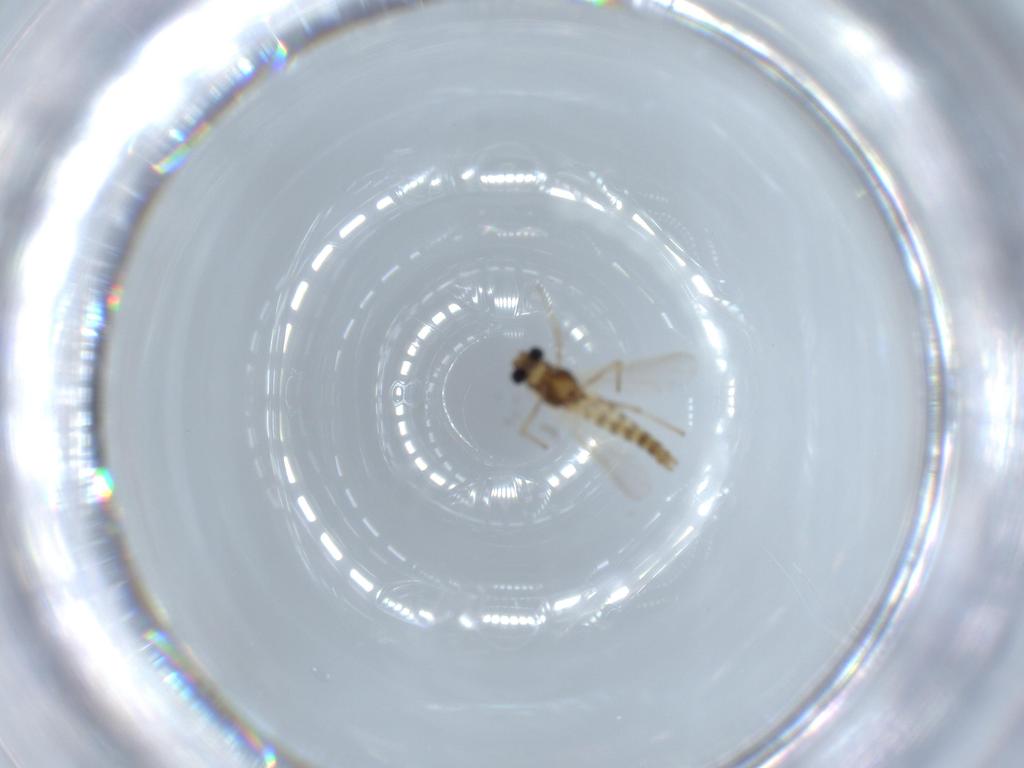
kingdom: Animalia
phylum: Arthropoda
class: Insecta
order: Diptera
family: Chironomidae
